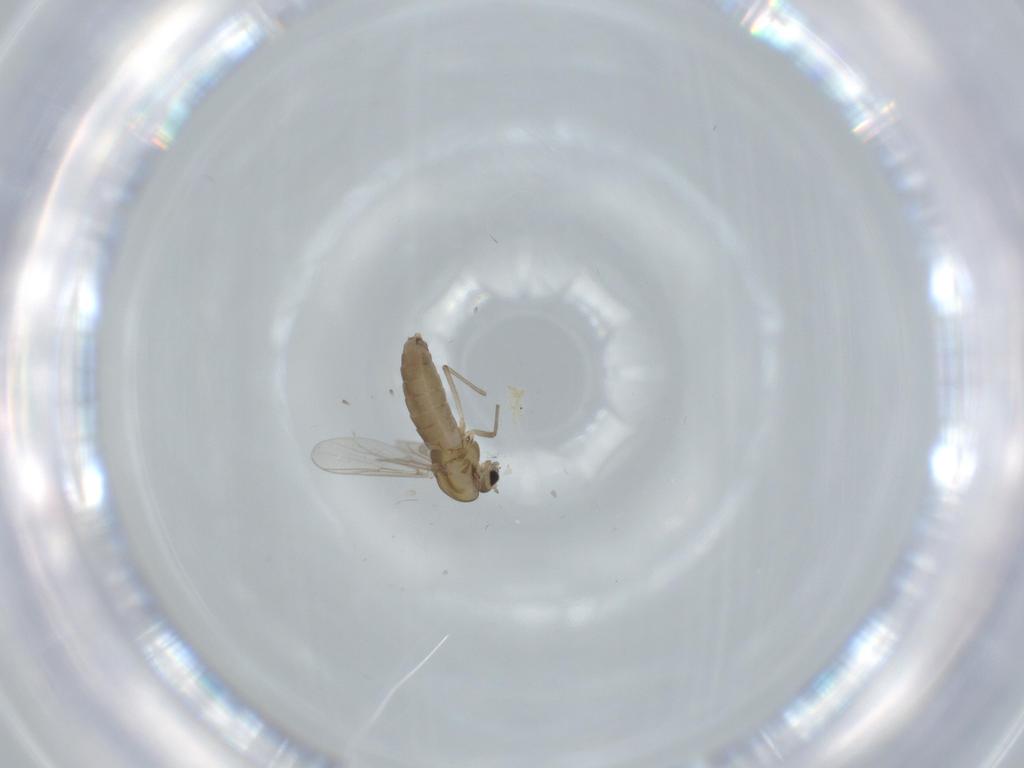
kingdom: Animalia
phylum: Arthropoda
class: Insecta
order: Diptera
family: Chironomidae
